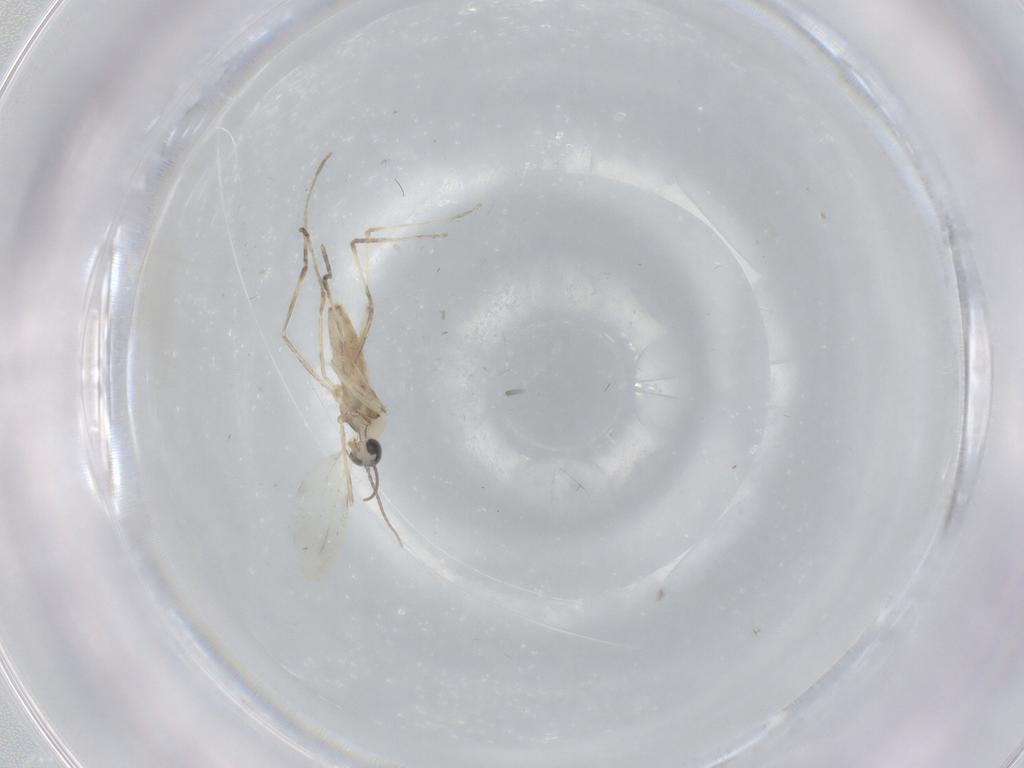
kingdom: Animalia
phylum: Arthropoda
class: Insecta
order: Diptera
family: Cecidomyiidae
